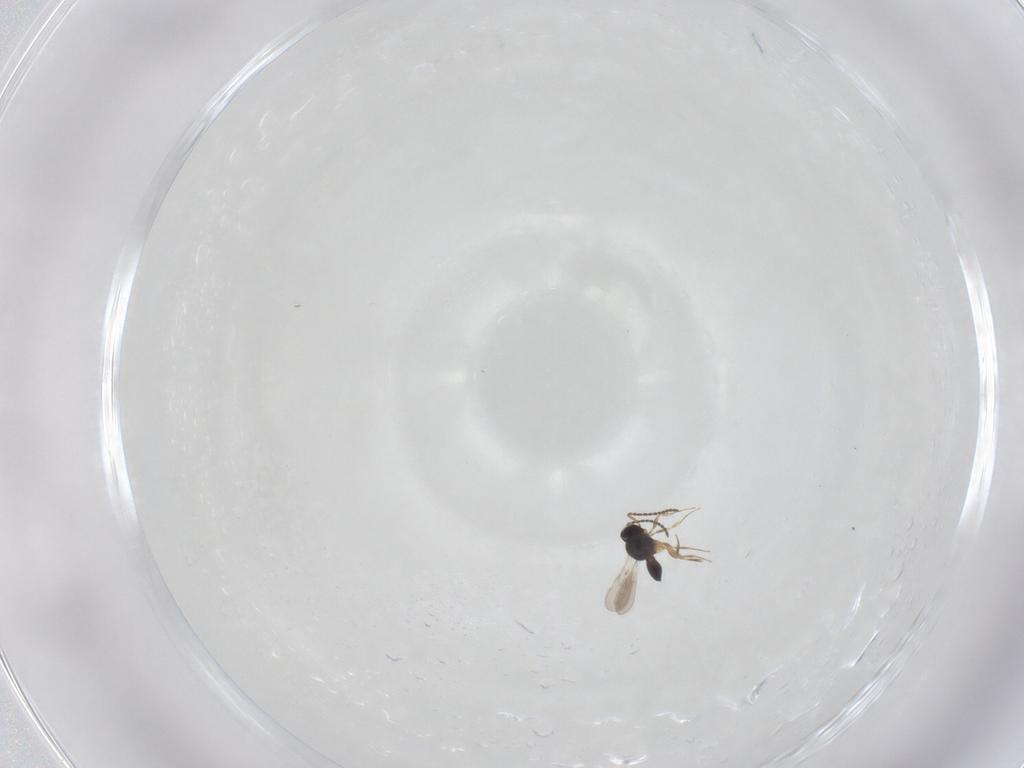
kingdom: Animalia
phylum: Arthropoda
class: Insecta
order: Hymenoptera
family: Scelionidae
